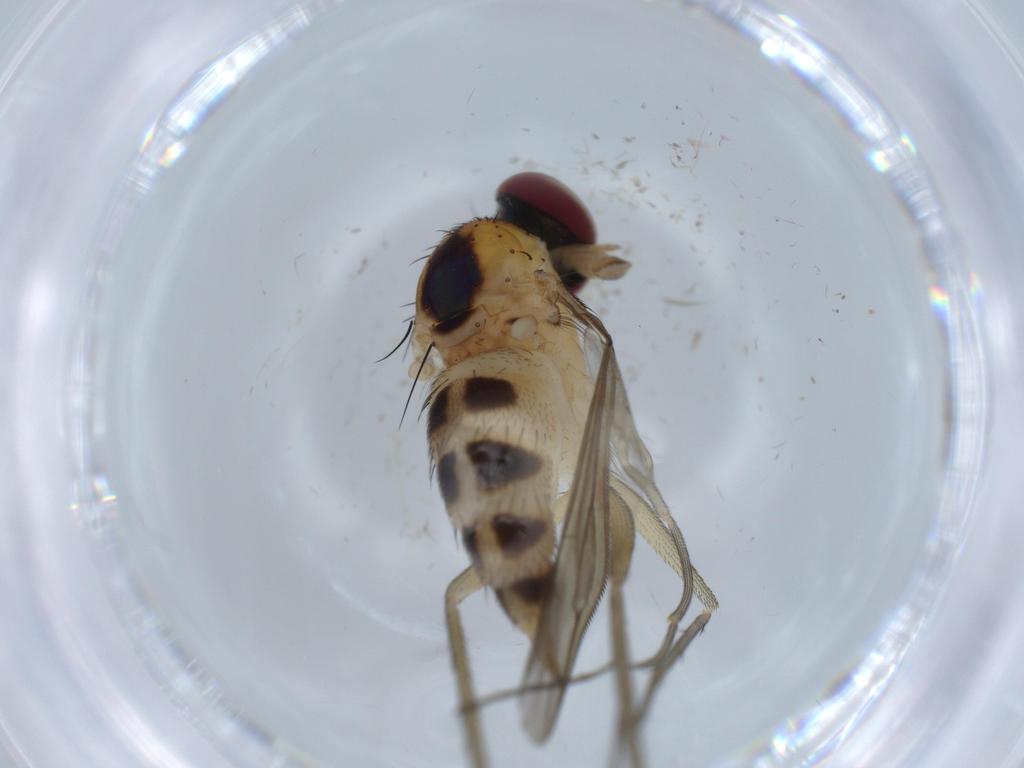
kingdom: Animalia
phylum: Arthropoda
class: Insecta
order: Diptera
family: Dolichopodidae
